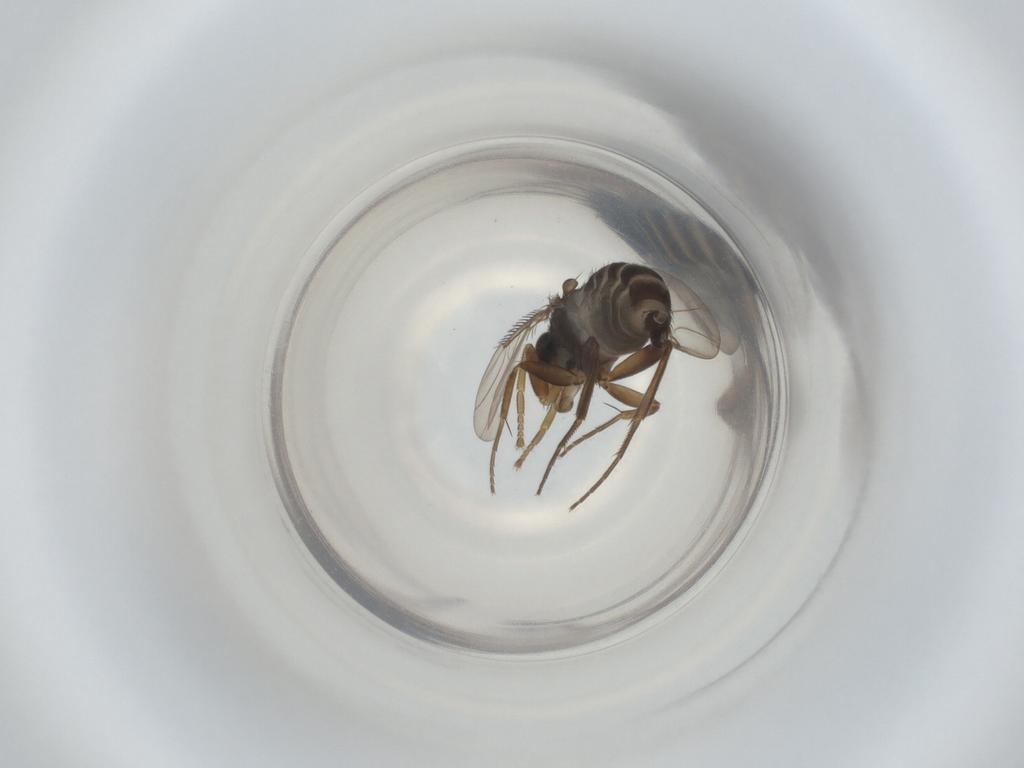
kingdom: Animalia
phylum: Arthropoda
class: Insecta
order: Diptera
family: Phoridae
